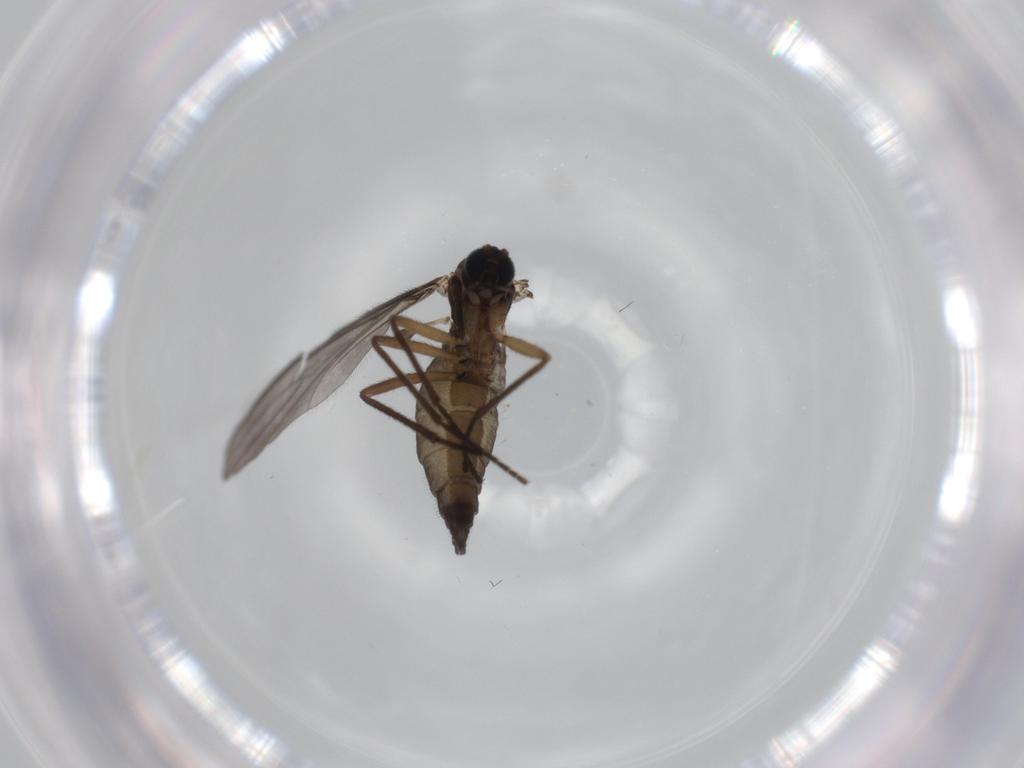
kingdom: Animalia
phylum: Arthropoda
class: Insecta
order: Diptera
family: Sciaridae
